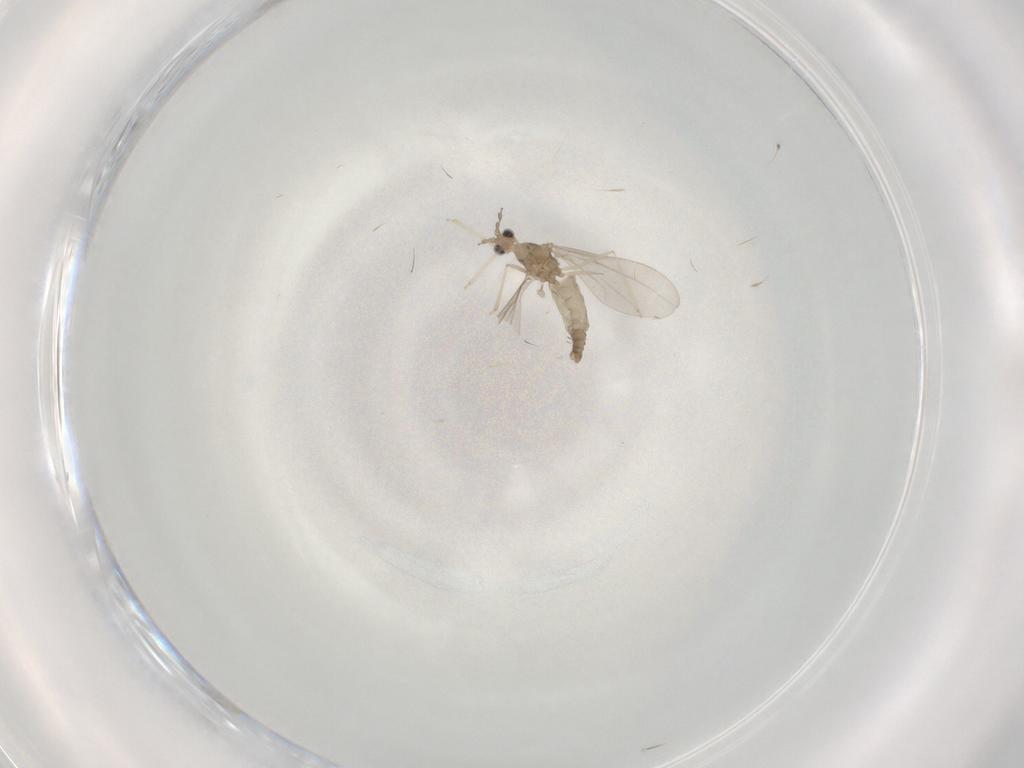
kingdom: Animalia
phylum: Arthropoda
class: Insecta
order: Diptera
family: Cecidomyiidae
